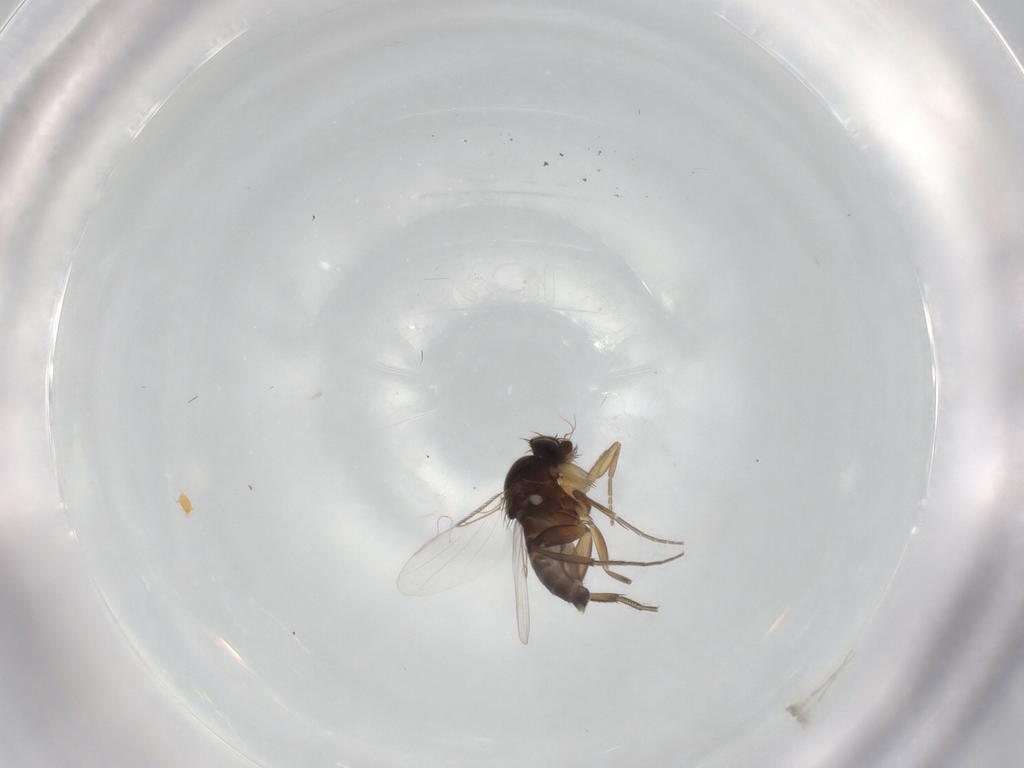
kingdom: Animalia
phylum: Arthropoda
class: Insecta
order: Diptera
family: Phoridae
